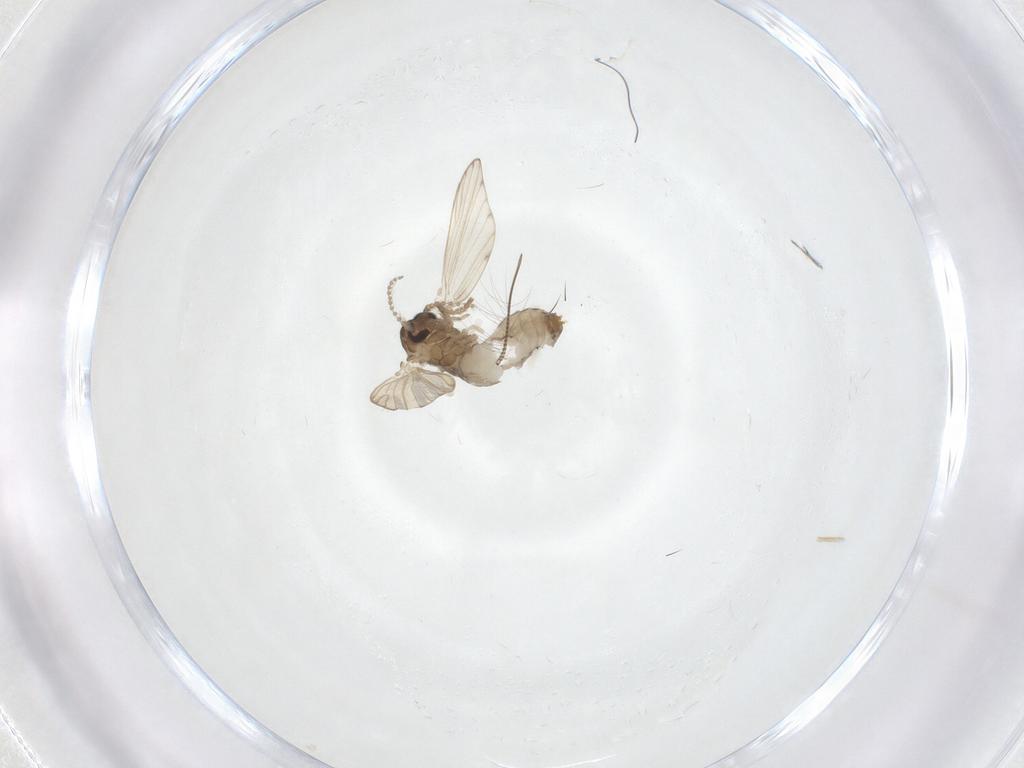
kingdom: Animalia
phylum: Arthropoda
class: Insecta
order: Diptera
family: Psychodidae
